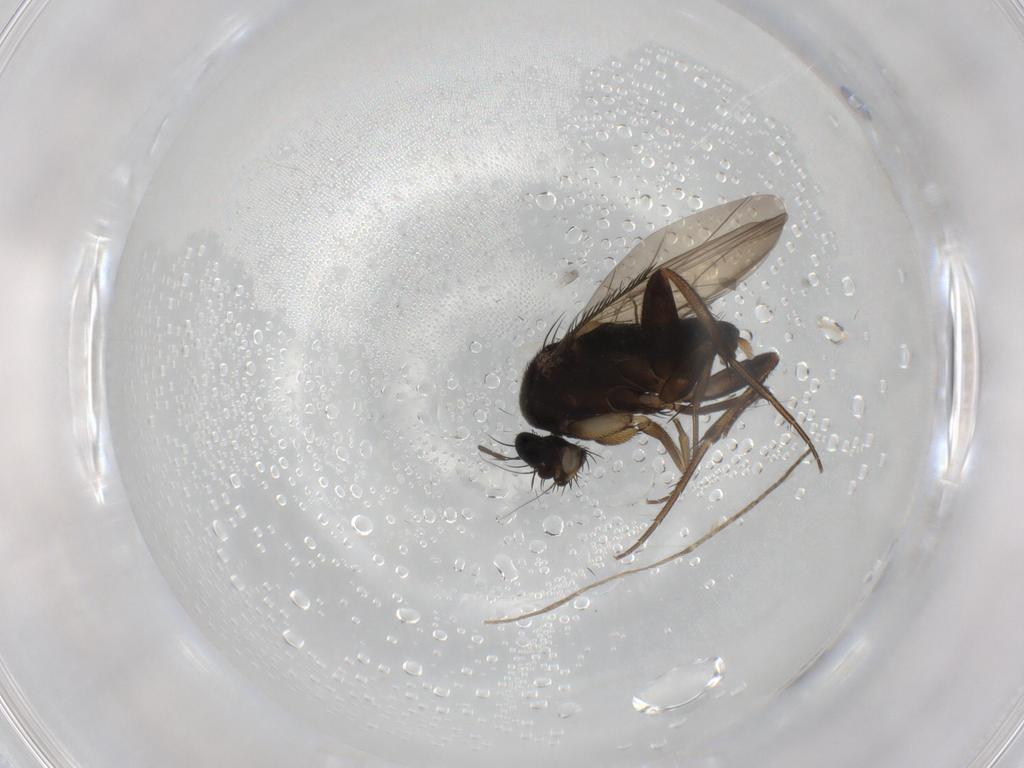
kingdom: Animalia
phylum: Arthropoda
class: Insecta
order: Diptera
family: Phoridae
